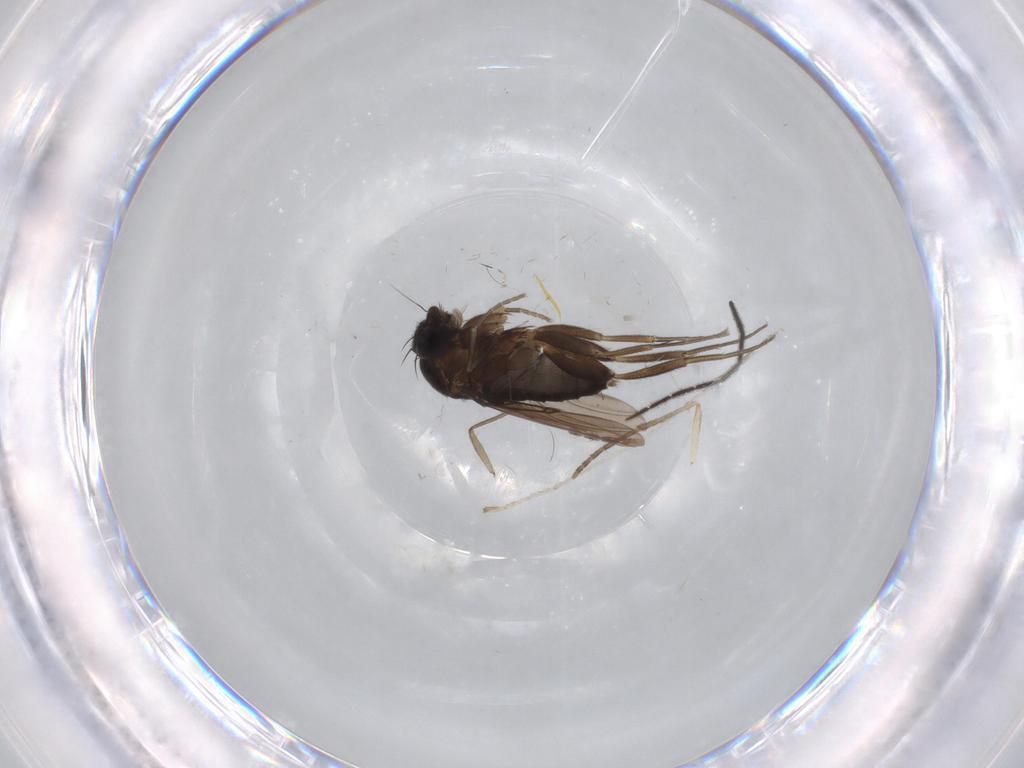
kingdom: Animalia
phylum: Arthropoda
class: Insecta
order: Diptera
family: Phoridae
